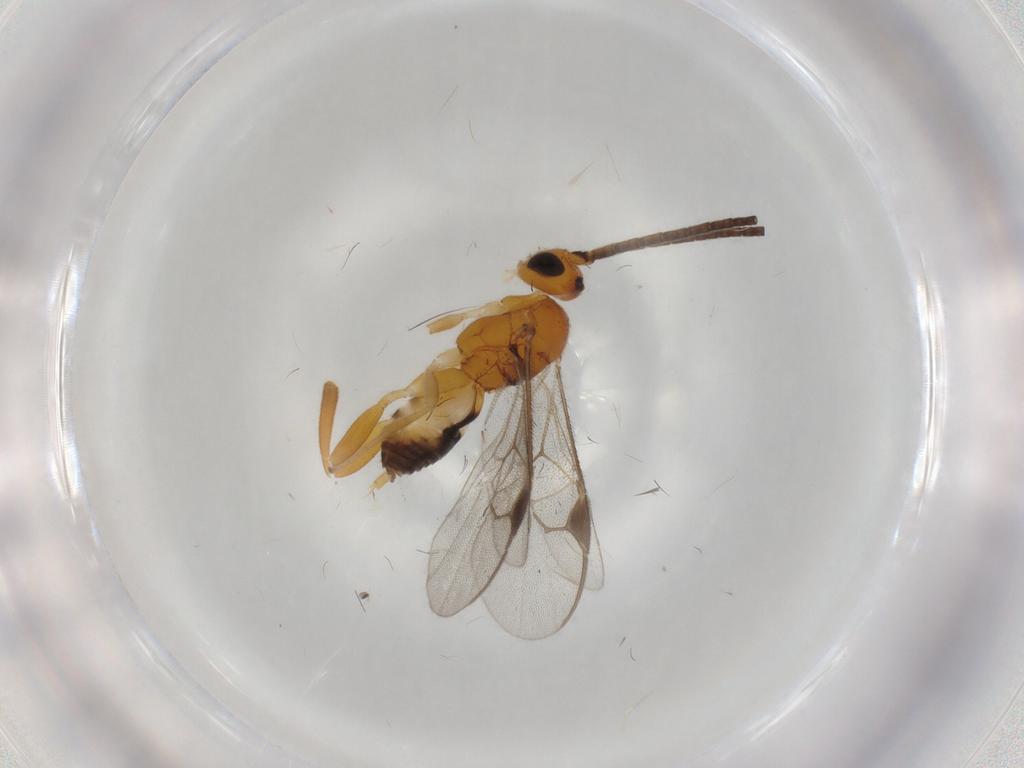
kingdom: Animalia
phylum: Arthropoda
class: Insecta
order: Hymenoptera
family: Braconidae
